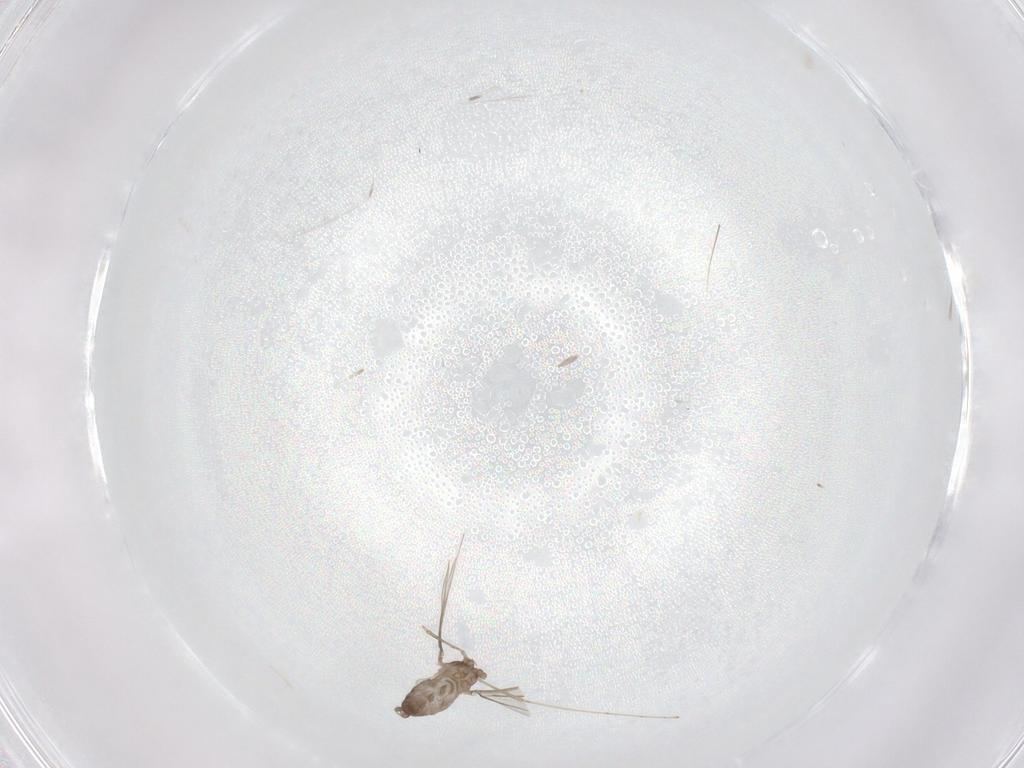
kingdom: Animalia
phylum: Arthropoda
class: Insecta
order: Diptera
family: Cecidomyiidae
